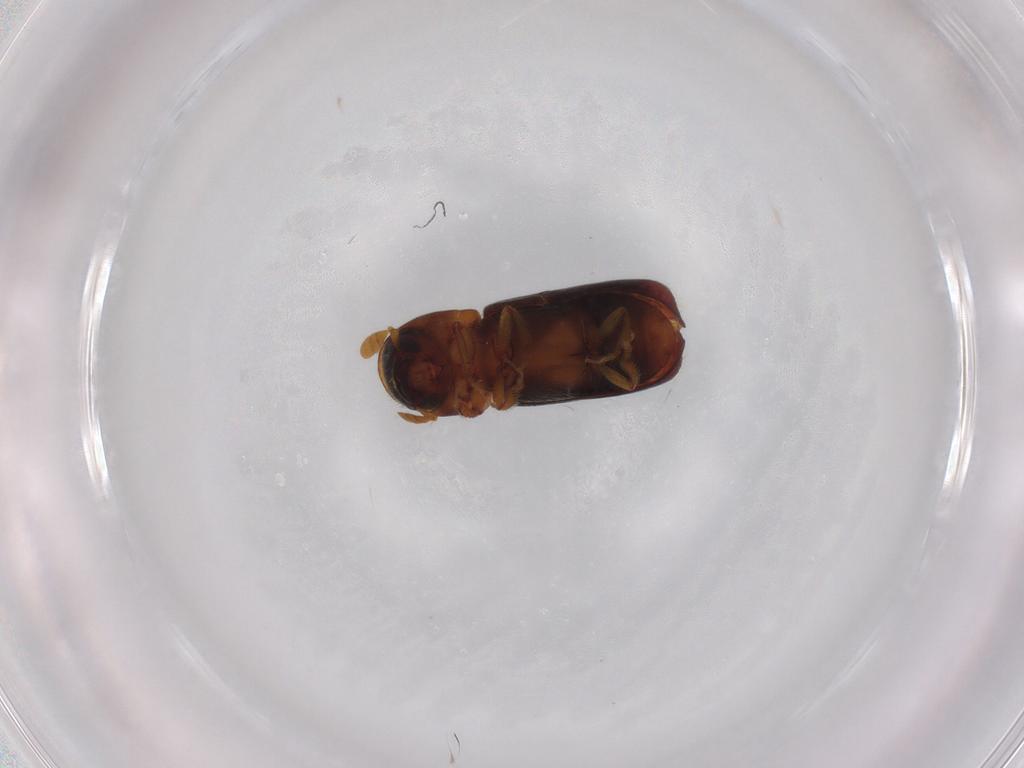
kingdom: Animalia
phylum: Arthropoda
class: Insecta
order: Coleoptera
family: Curculionidae
